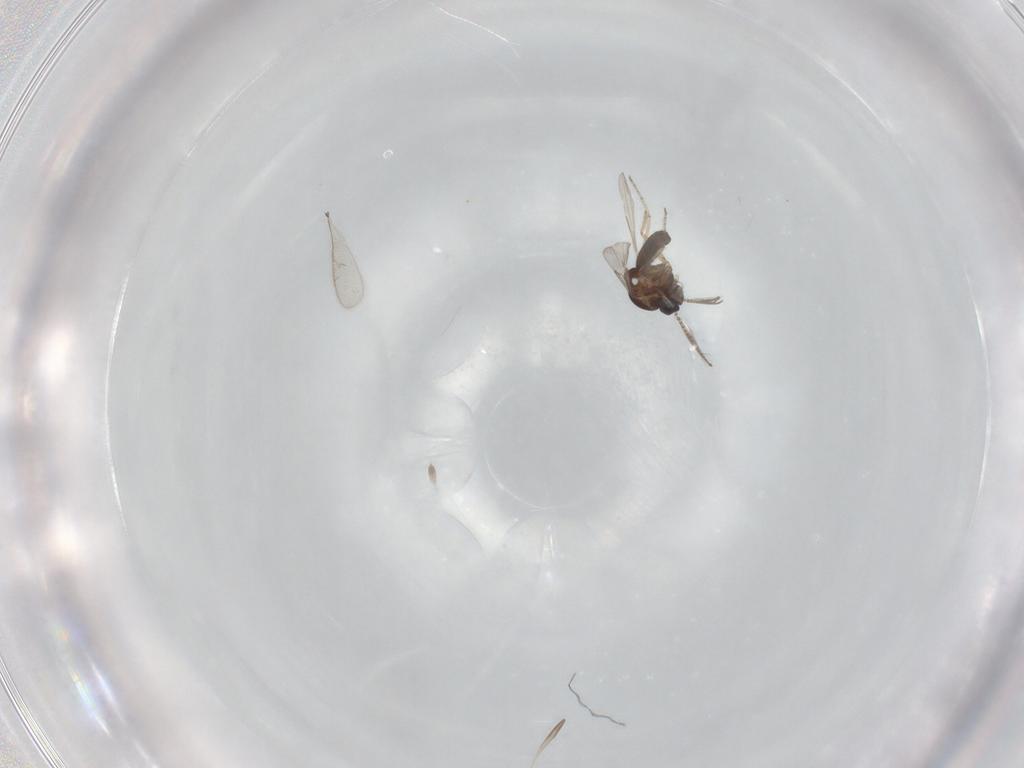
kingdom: Animalia
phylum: Arthropoda
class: Insecta
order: Diptera
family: Ceratopogonidae
